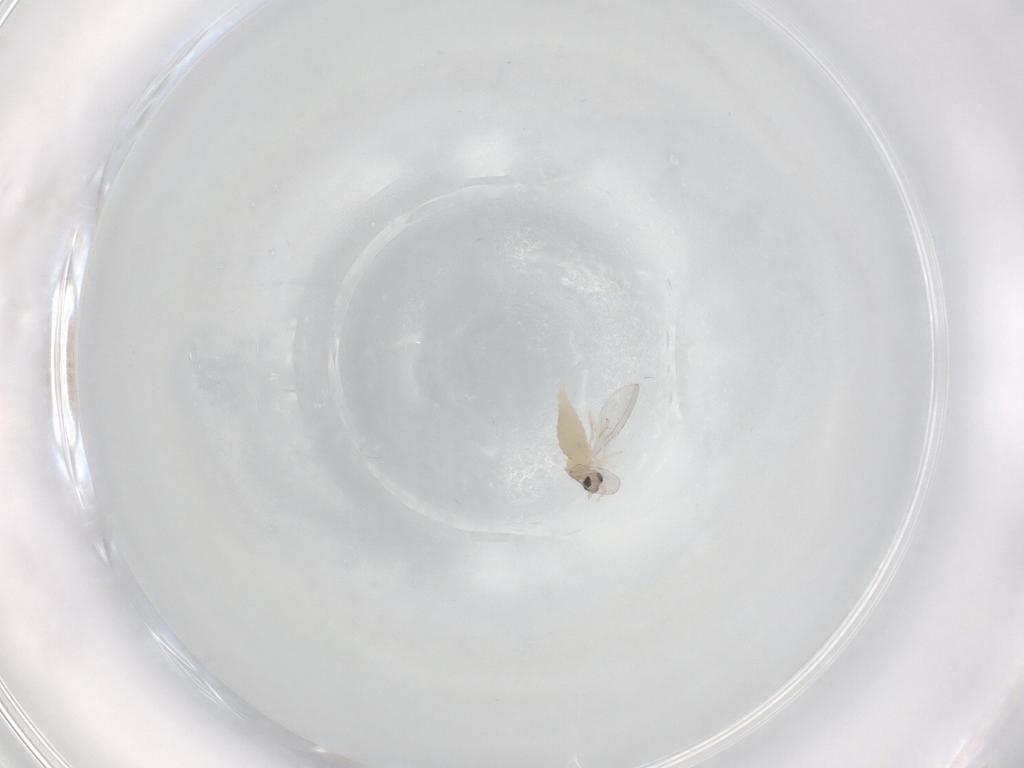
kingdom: Animalia
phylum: Arthropoda
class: Insecta
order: Diptera
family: Cecidomyiidae
